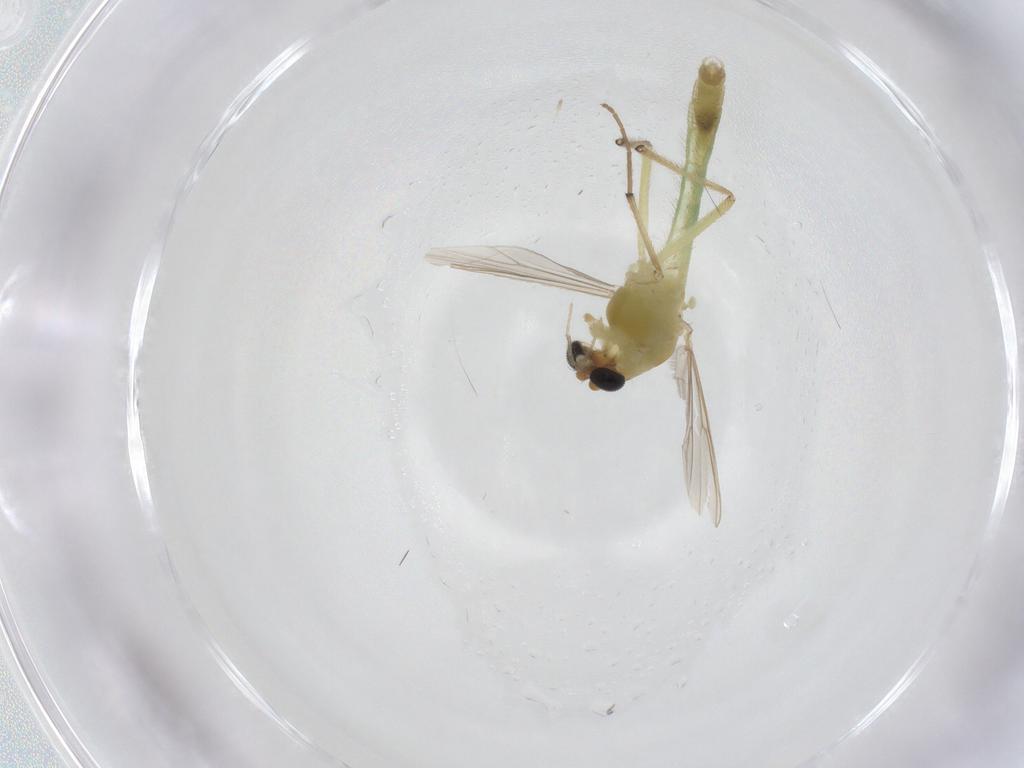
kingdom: Animalia
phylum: Arthropoda
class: Insecta
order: Diptera
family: Chironomidae
